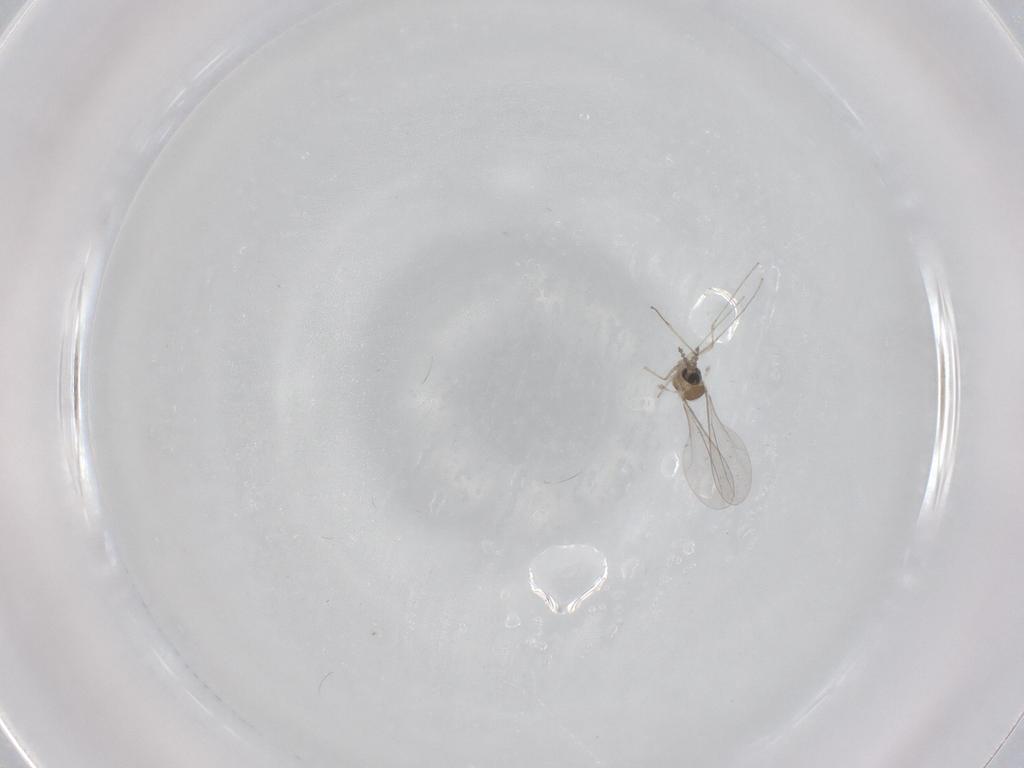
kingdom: Animalia
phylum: Arthropoda
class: Insecta
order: Diptera
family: Cecidomyiidae
